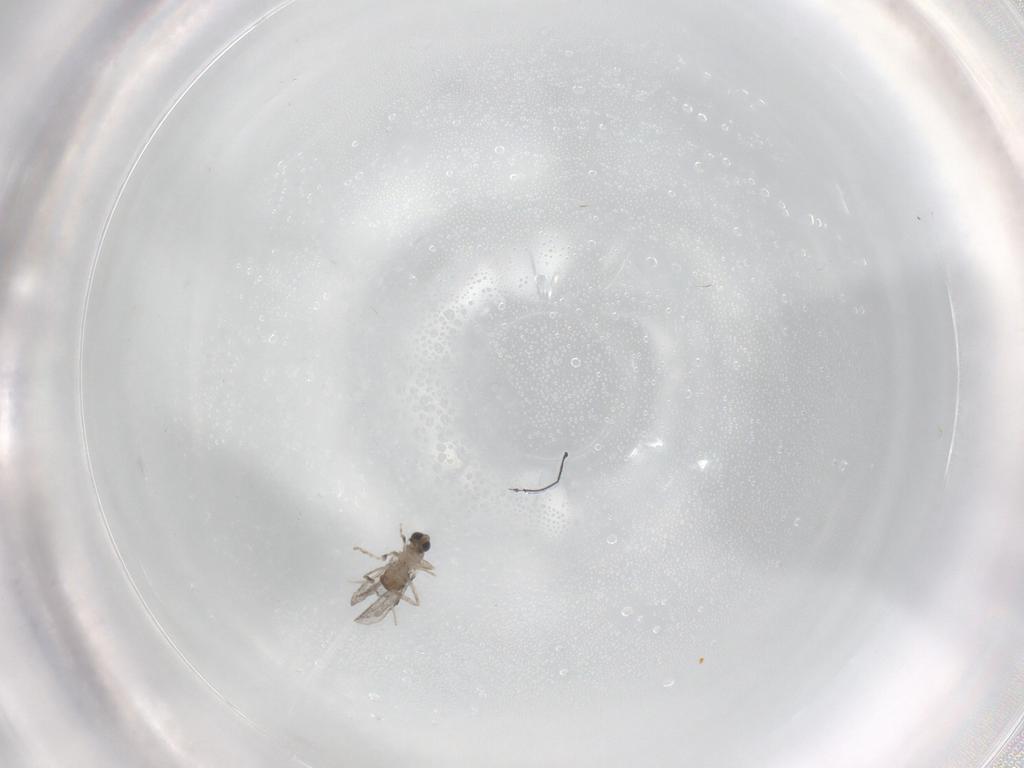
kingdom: Animalia
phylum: Arthropoda
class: Insecta
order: Diptera
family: Cecidomyiidae
